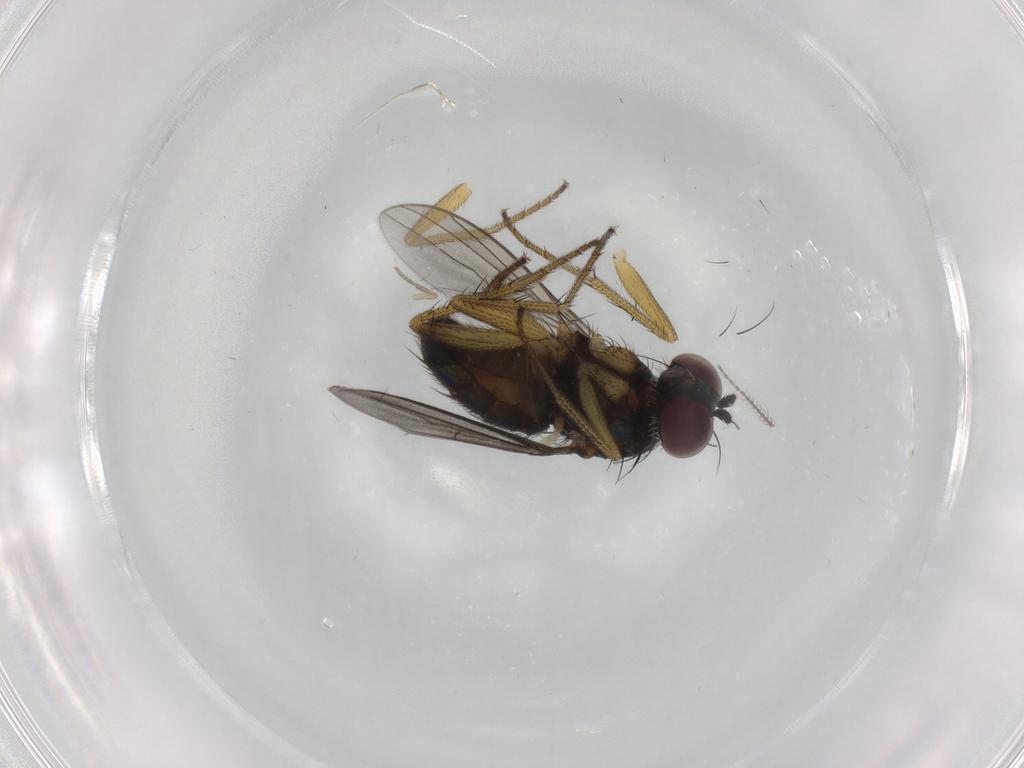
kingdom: Animalia
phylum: Arthropoda
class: Insecta
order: Diptera
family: Dolichopodidae
